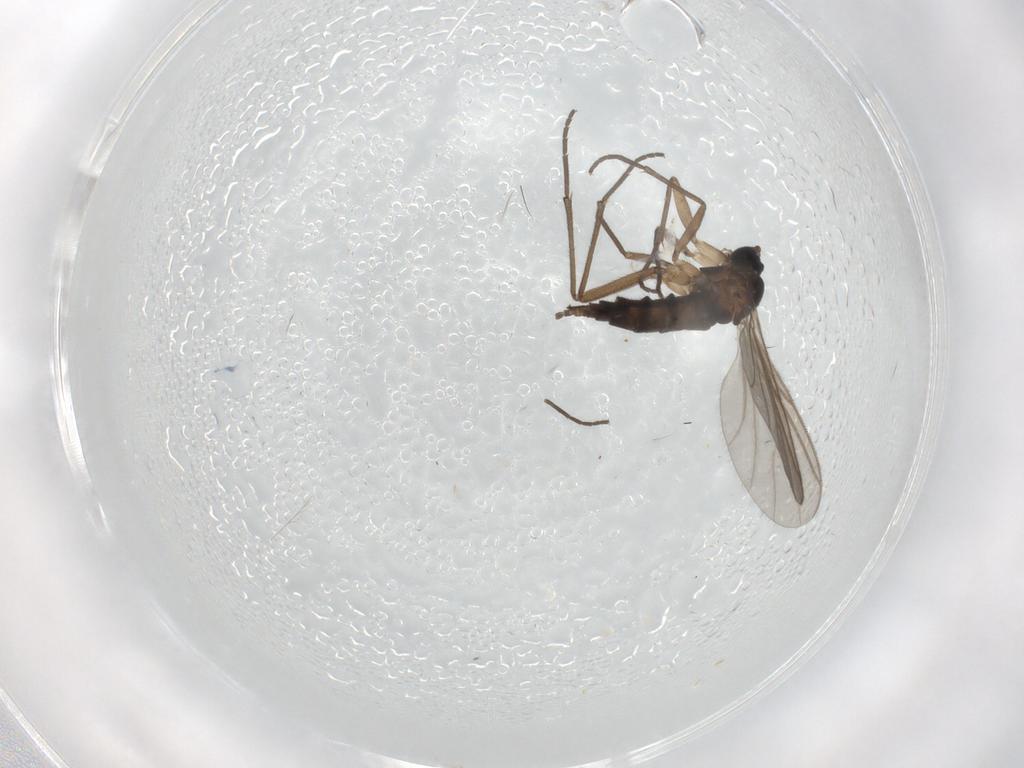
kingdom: Animalia
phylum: Arthropoda
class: Insecta
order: Diptera
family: Sciaridae
